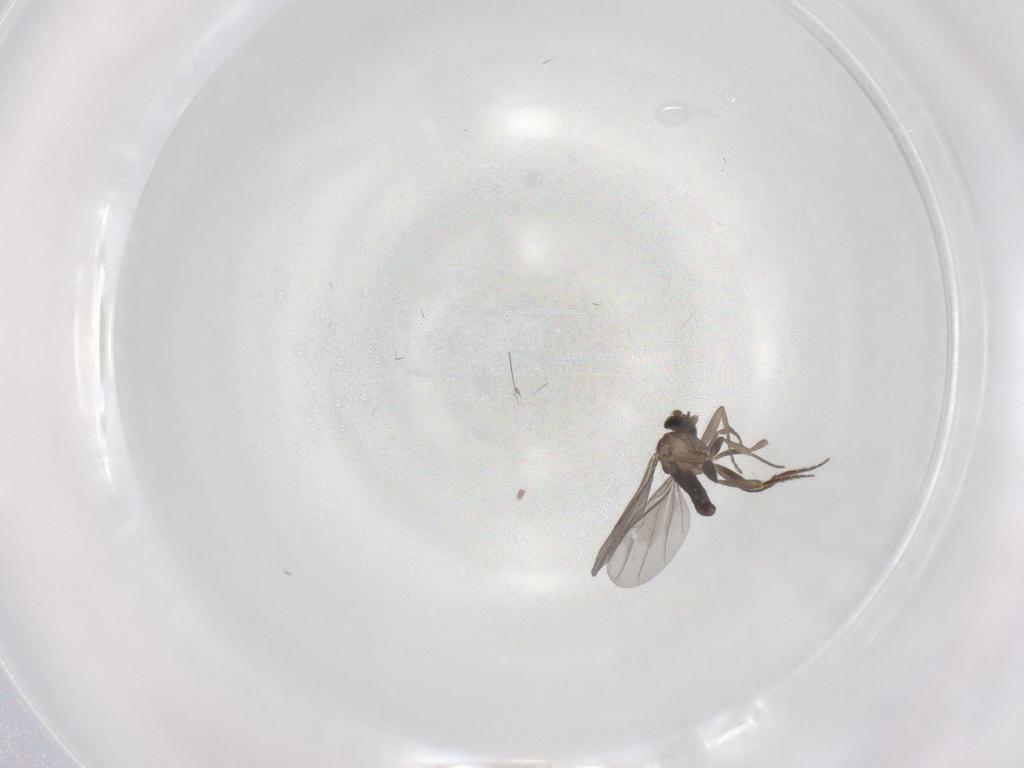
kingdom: Animalia
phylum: Arthropoda
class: Insecta
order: Diptera
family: Phoridae
